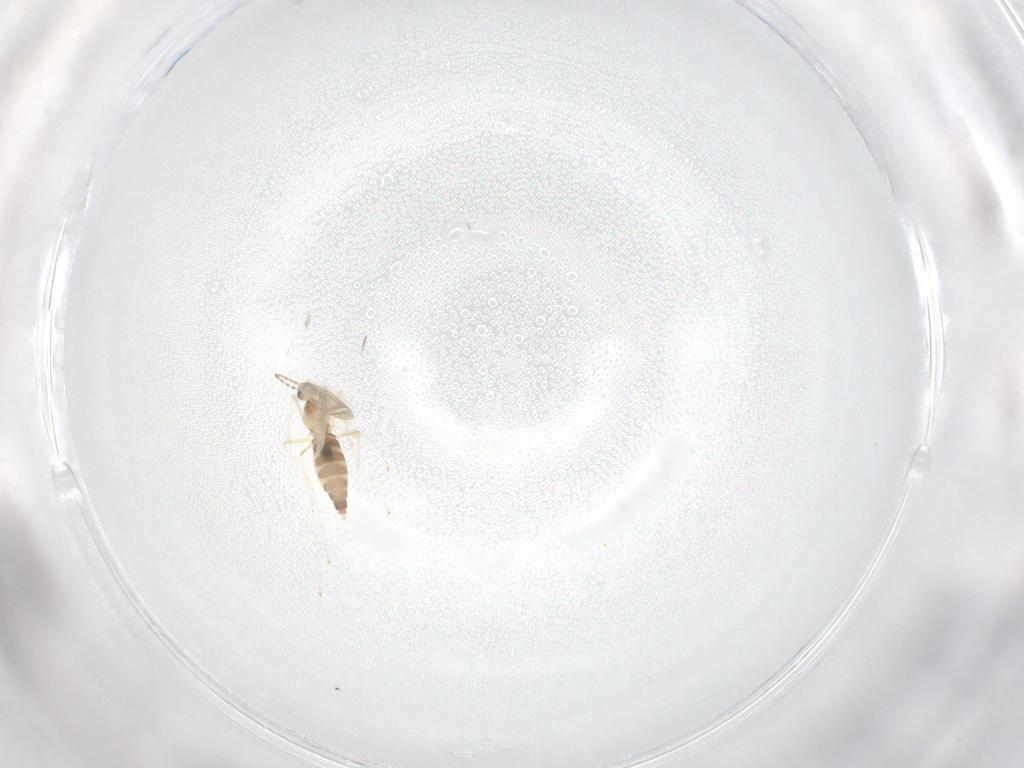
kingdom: Animalia
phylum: Arthropoda
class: Insecta
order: Diptera
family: Cecidomyiidae
